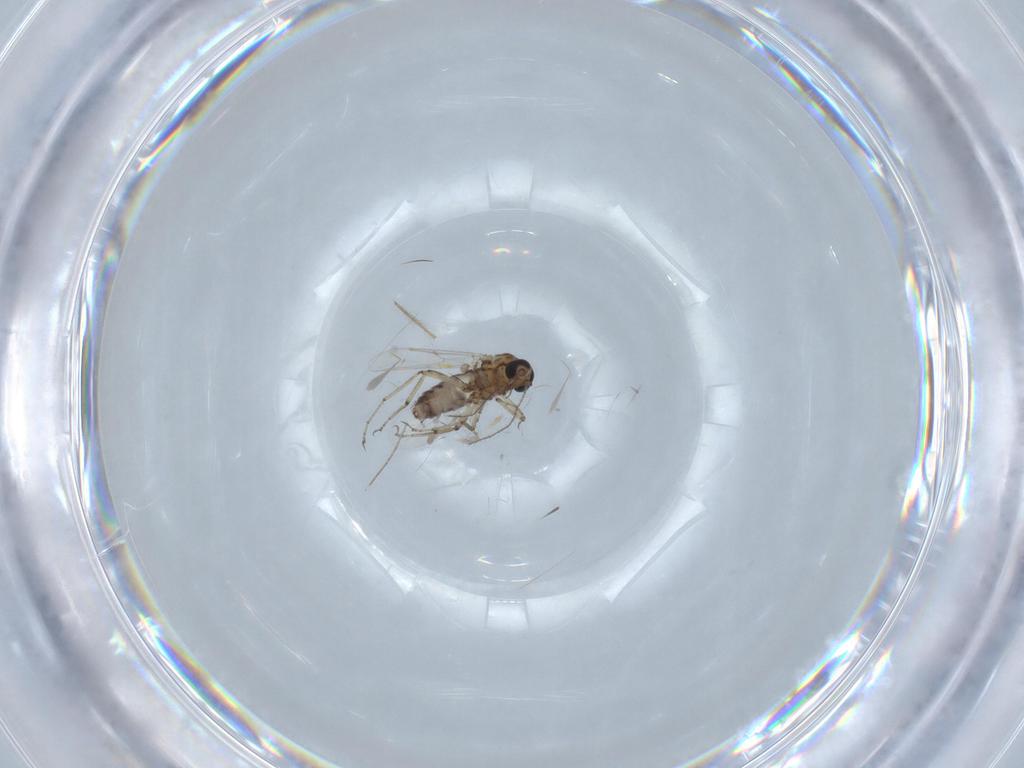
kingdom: Animalia
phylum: Arthropoda
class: Insecta
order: Diptera
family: Ceratopogonidae
